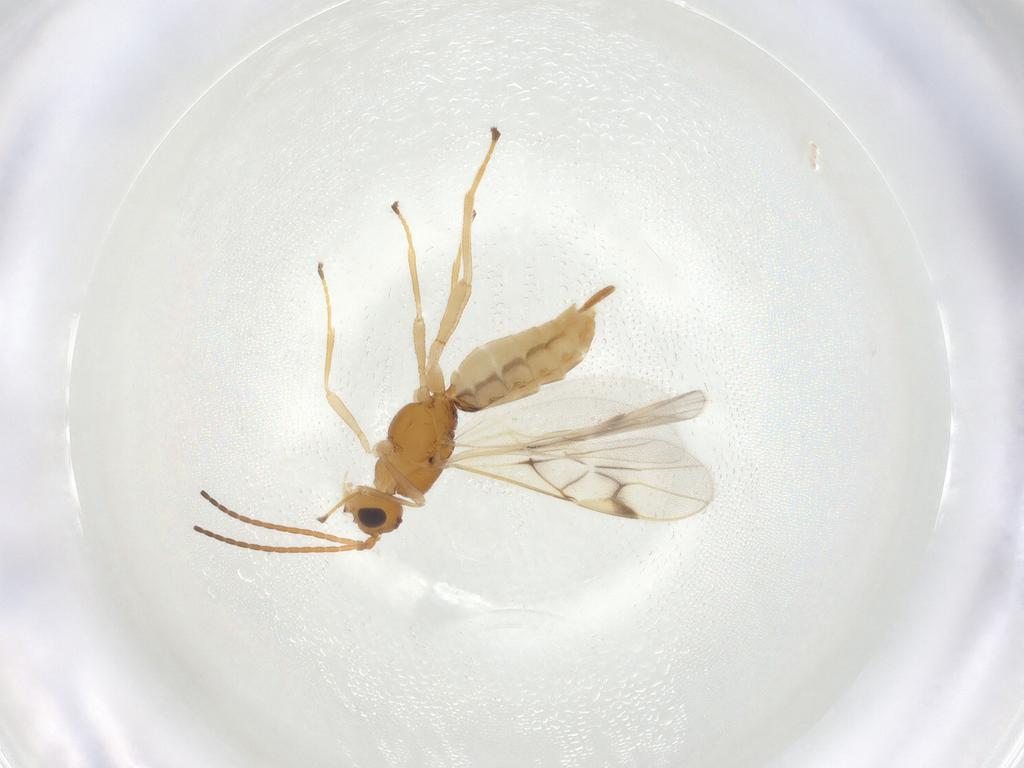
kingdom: Animalia
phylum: Arthropoda
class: Insecta
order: Hymenoptera
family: Braconidae
